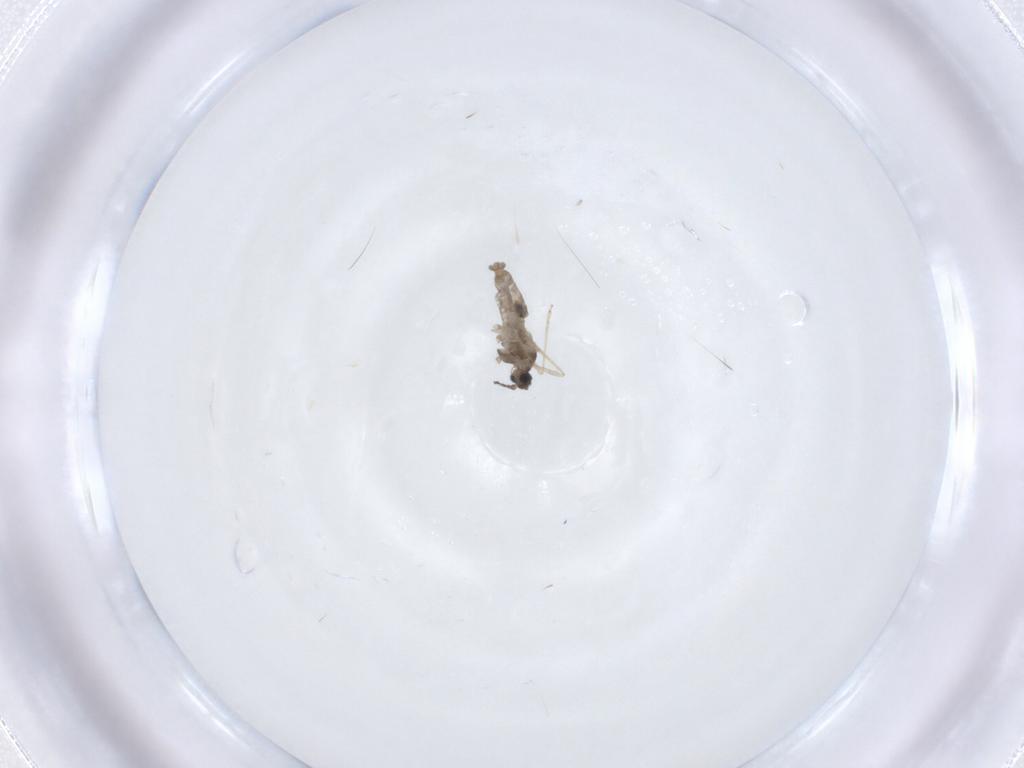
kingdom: Animalia
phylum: Arthropoda
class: Insecta
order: Diptera
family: Cecidomyiidae
